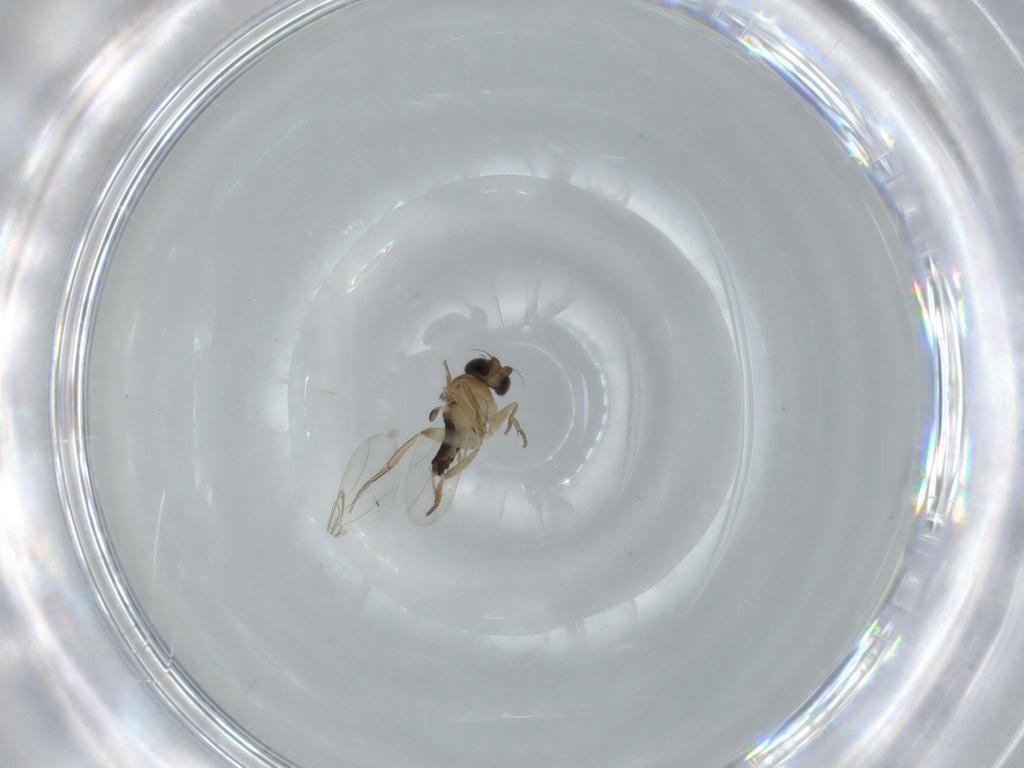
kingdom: Animalia
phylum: Arthropoda
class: Insecta
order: Diptera
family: Phoridae
